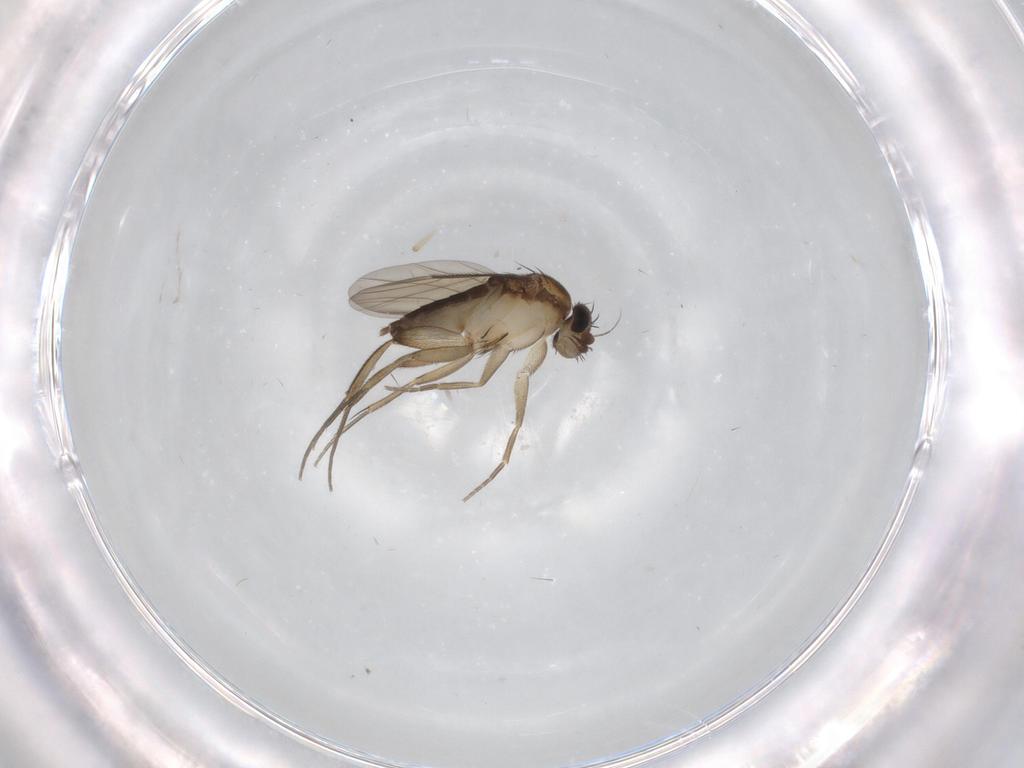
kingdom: Animalia
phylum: Arthropoda
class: Insecta
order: Diptera
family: Phoridae
